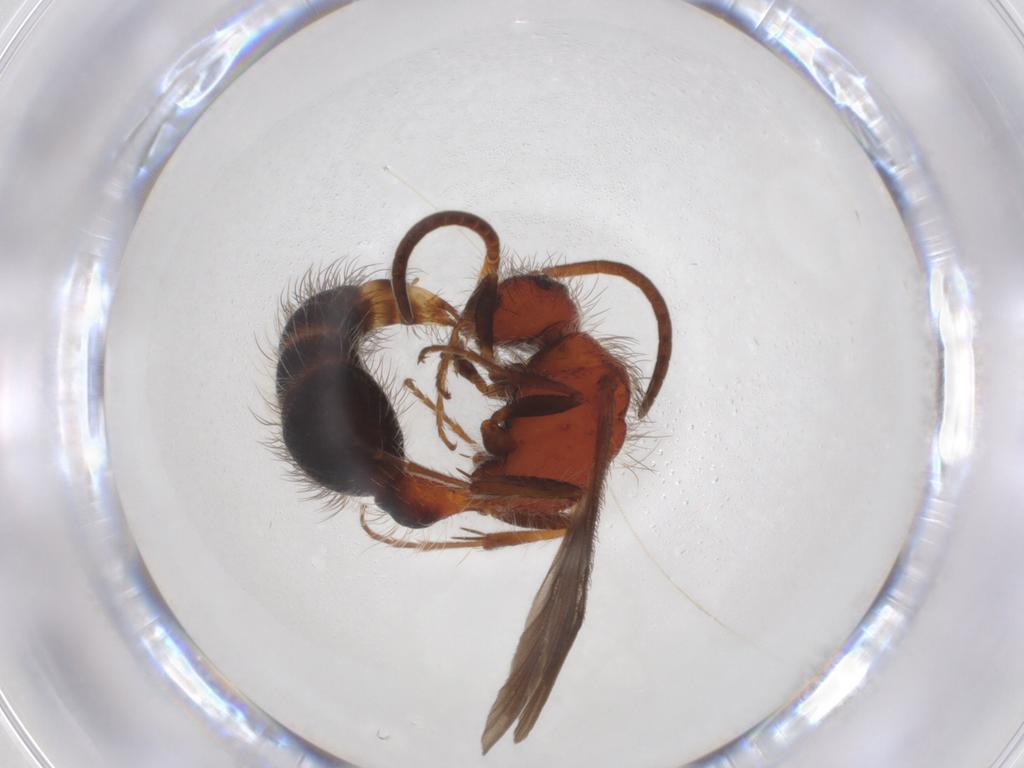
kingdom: Animalia
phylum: Arthropoda
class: Insecta
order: Hymenoptera
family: Mutillidae
